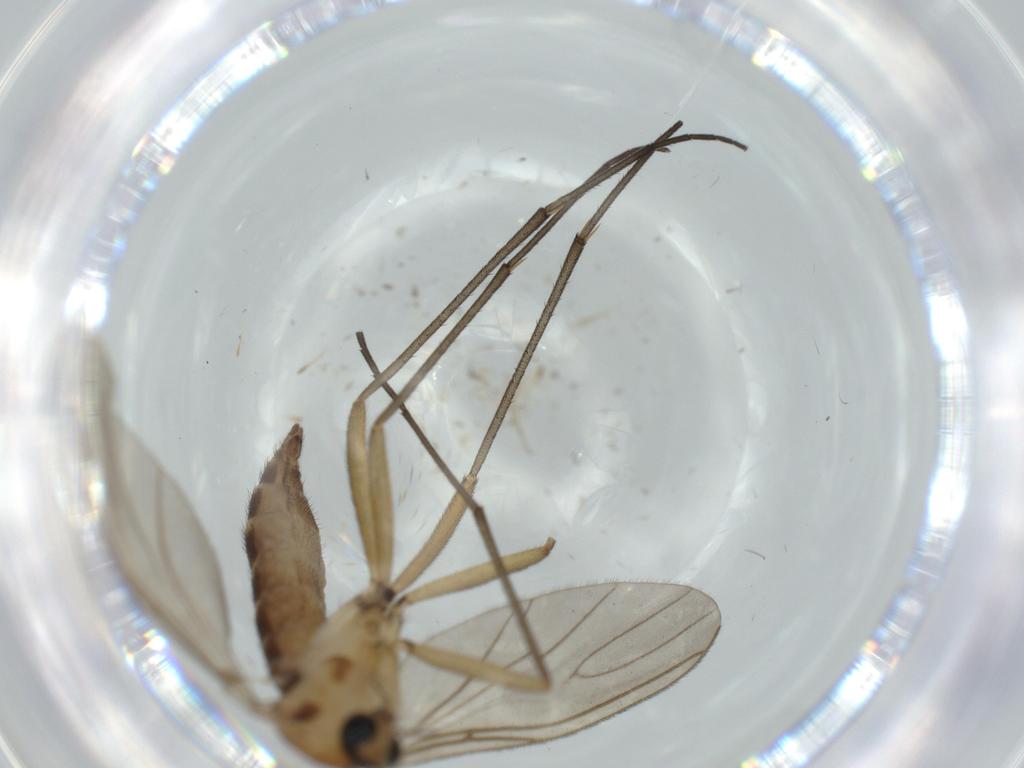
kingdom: Animalia
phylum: Arthropoda
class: Insecta
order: Diptera
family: Sciaridae
